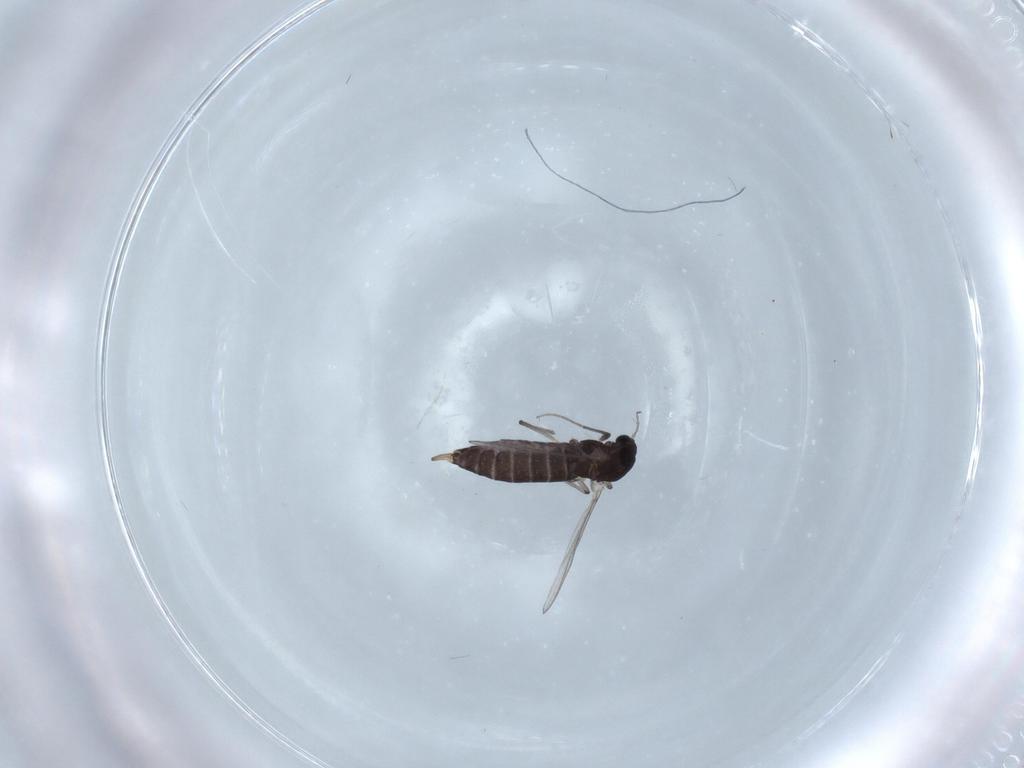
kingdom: Animalia
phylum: Arthropoda
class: Insecta
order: Diptera
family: Chironomidae
